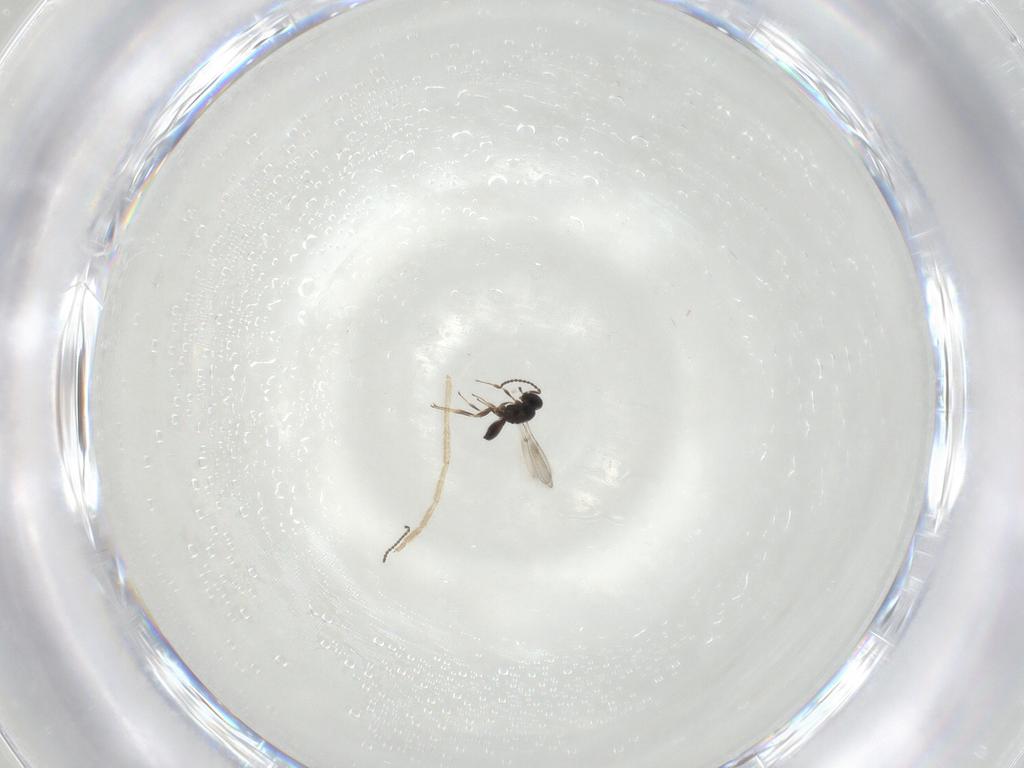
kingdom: Animalia
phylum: Arthropoda
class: Insecta
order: Hymenoptera
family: Scelionidae
